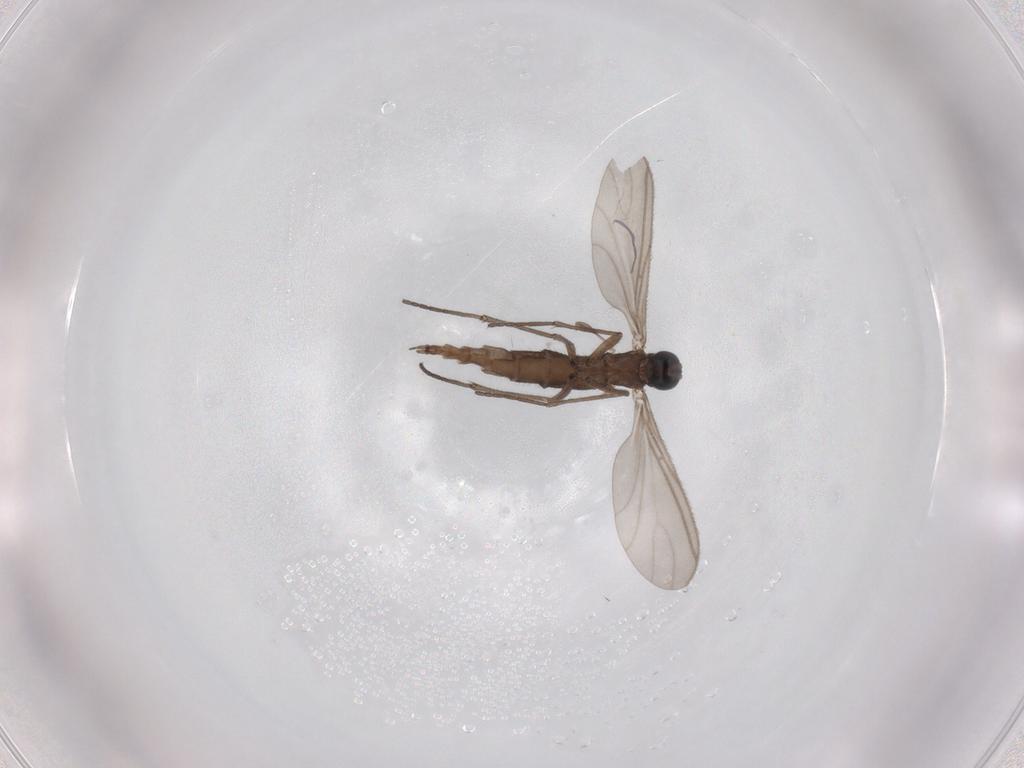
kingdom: Animalia
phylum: Arthropoda
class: Insecta
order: Diptera
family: Sciaridae
